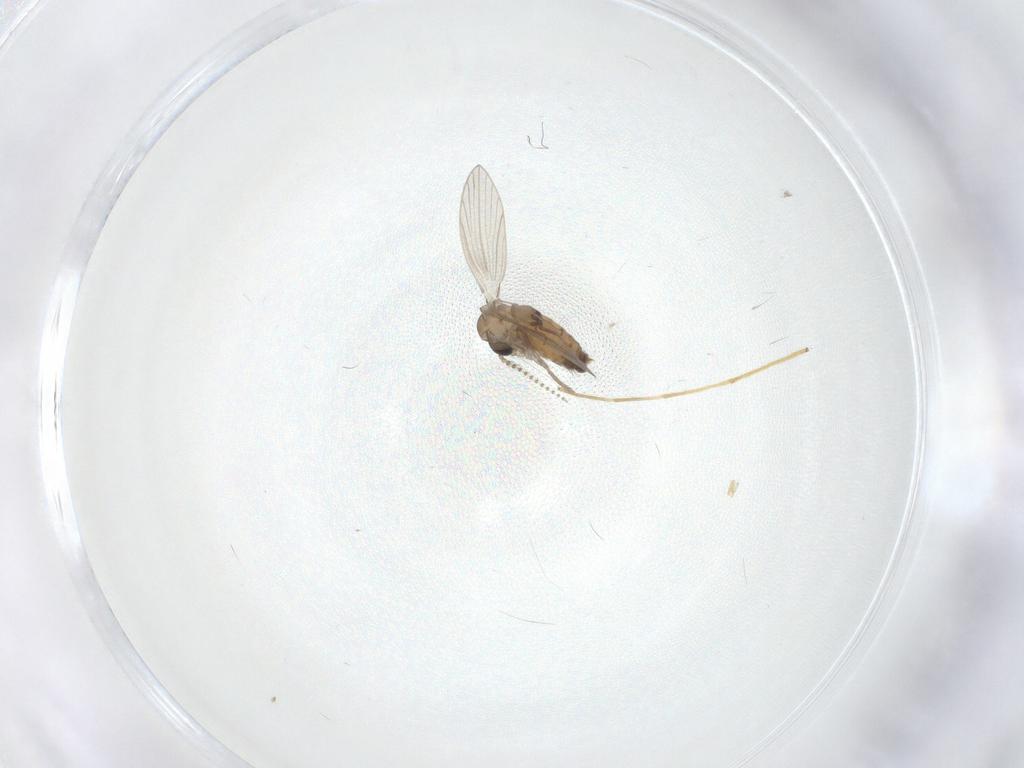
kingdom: Animalia
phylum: Arthropoda
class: Insecta
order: Diptera
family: Psychodidae
